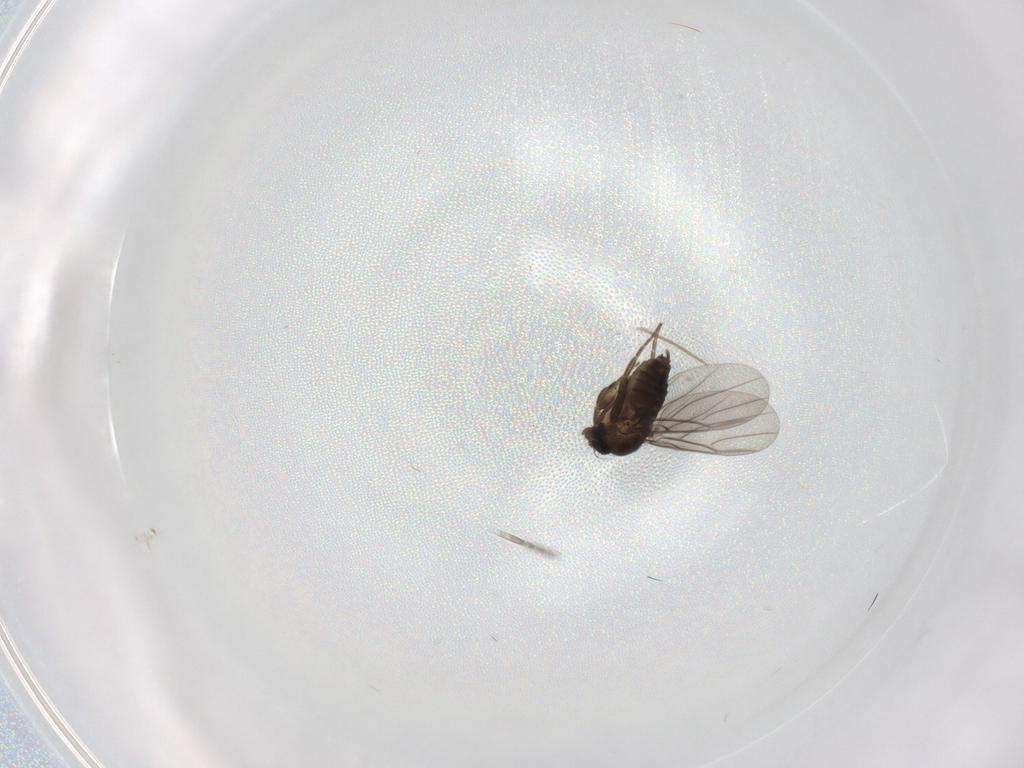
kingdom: Animalia
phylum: Arthropoda
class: Insecta
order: Diptera
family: Phoridae
